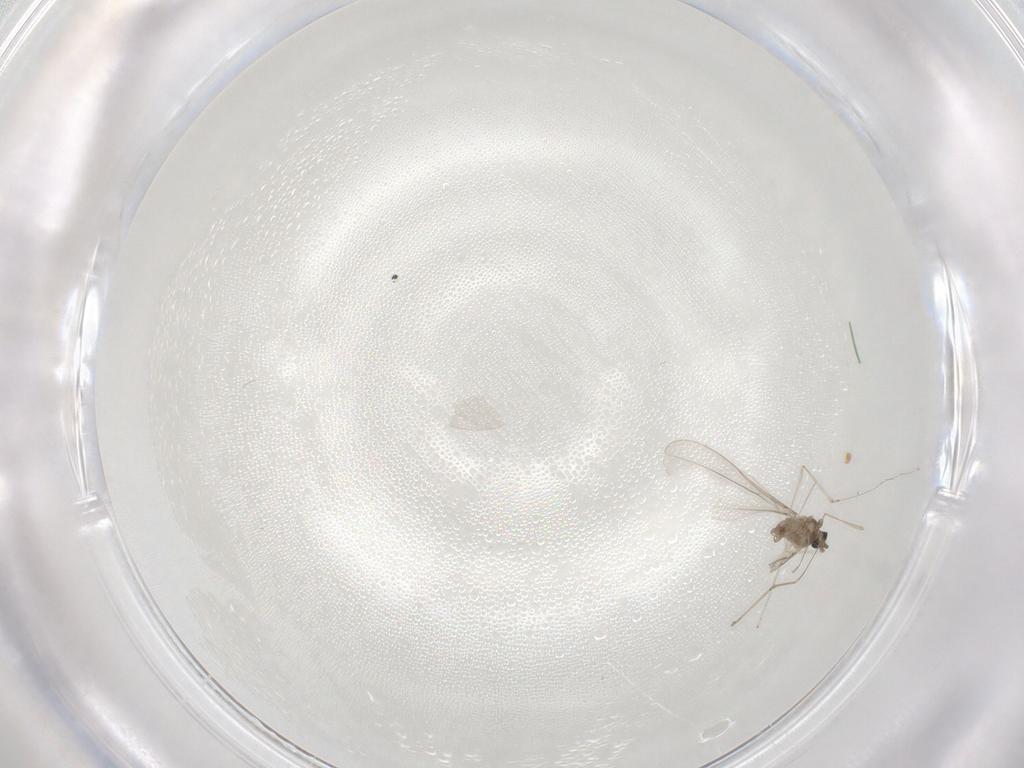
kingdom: Animalia
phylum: Arthropoda
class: Insecta
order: Diptera
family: Cecidomyiidae
